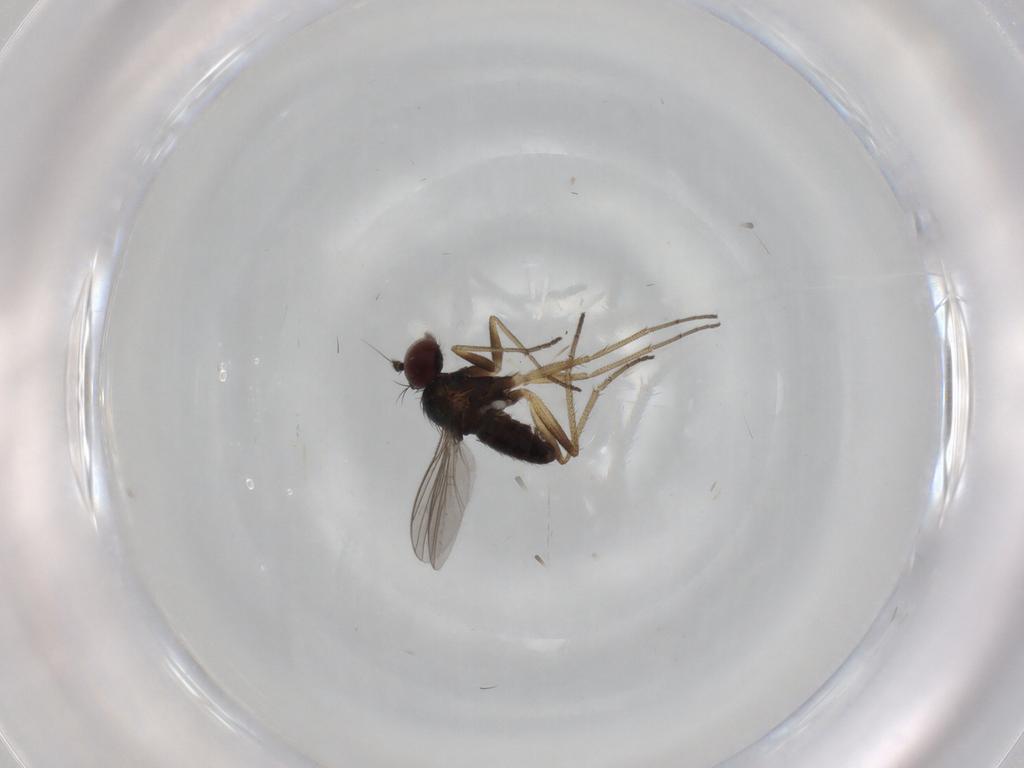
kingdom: Animalia
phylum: Arthropoda
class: Insecta
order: Diptera
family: Dolichopodidae
